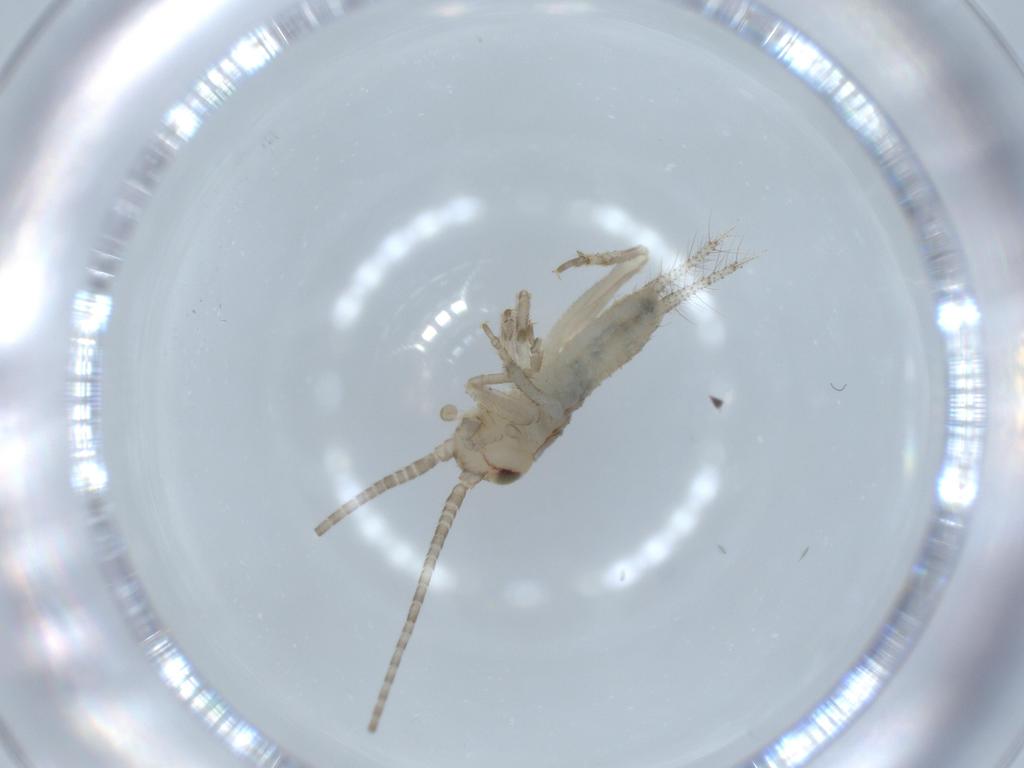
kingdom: Animalia
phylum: Arthropoda
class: Insecta
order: Orthoptera
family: Gryllidae
